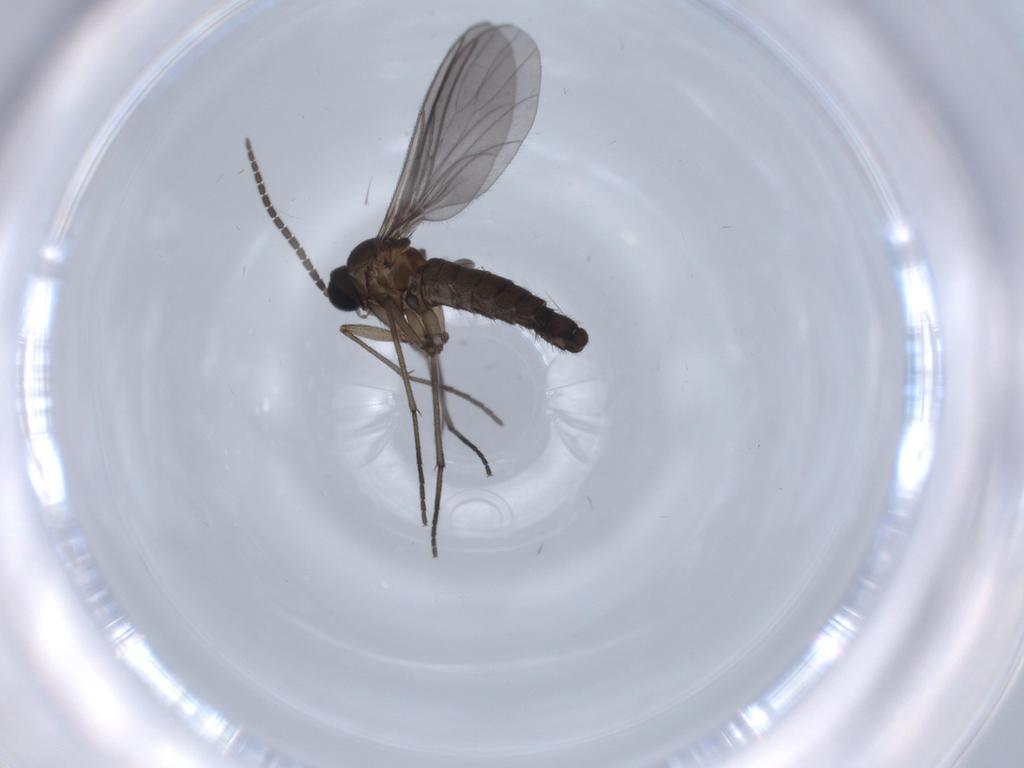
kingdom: Animalia
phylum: Arthropoda
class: Insecta
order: Diptera
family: Sciaridae
